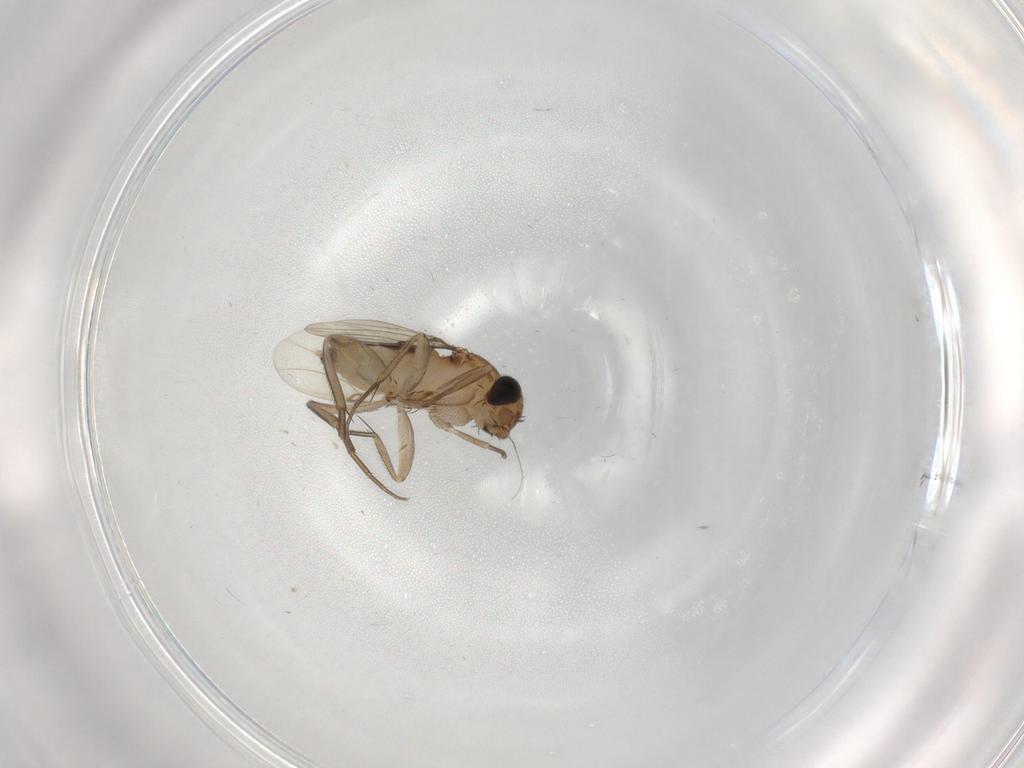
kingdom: Animalia
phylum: Arthropoda
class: Insecta
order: Diptera
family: Phoridae
